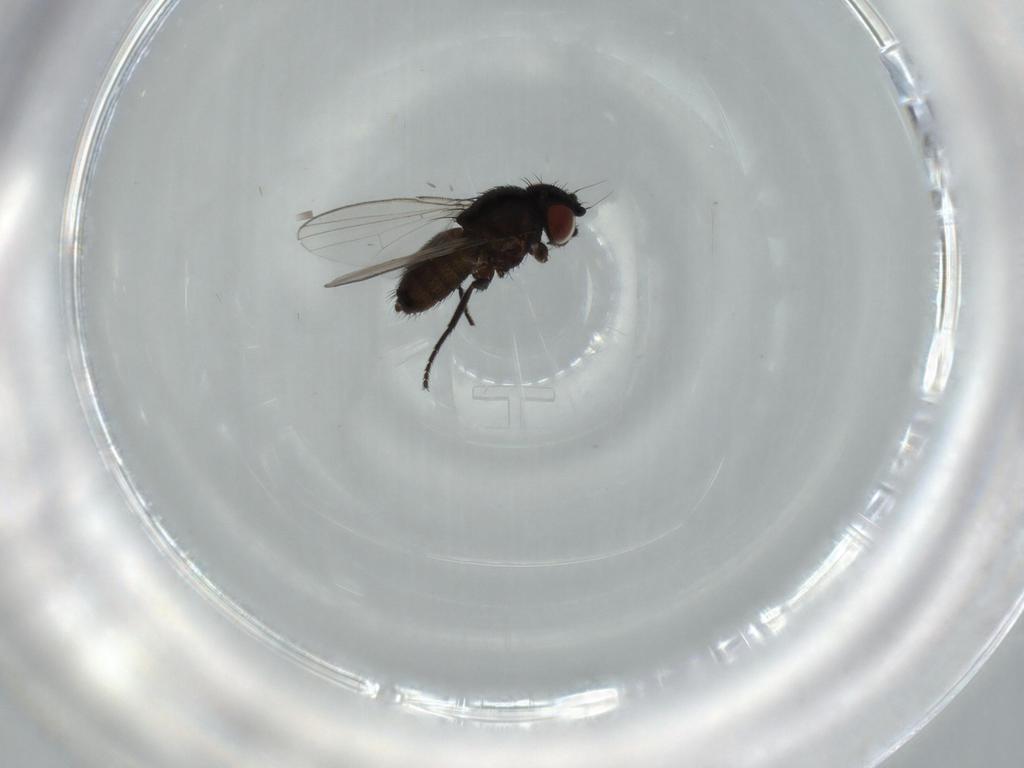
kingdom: Animalia
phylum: Arthropoda
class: Insecta
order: Diptera
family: Milichiidae
